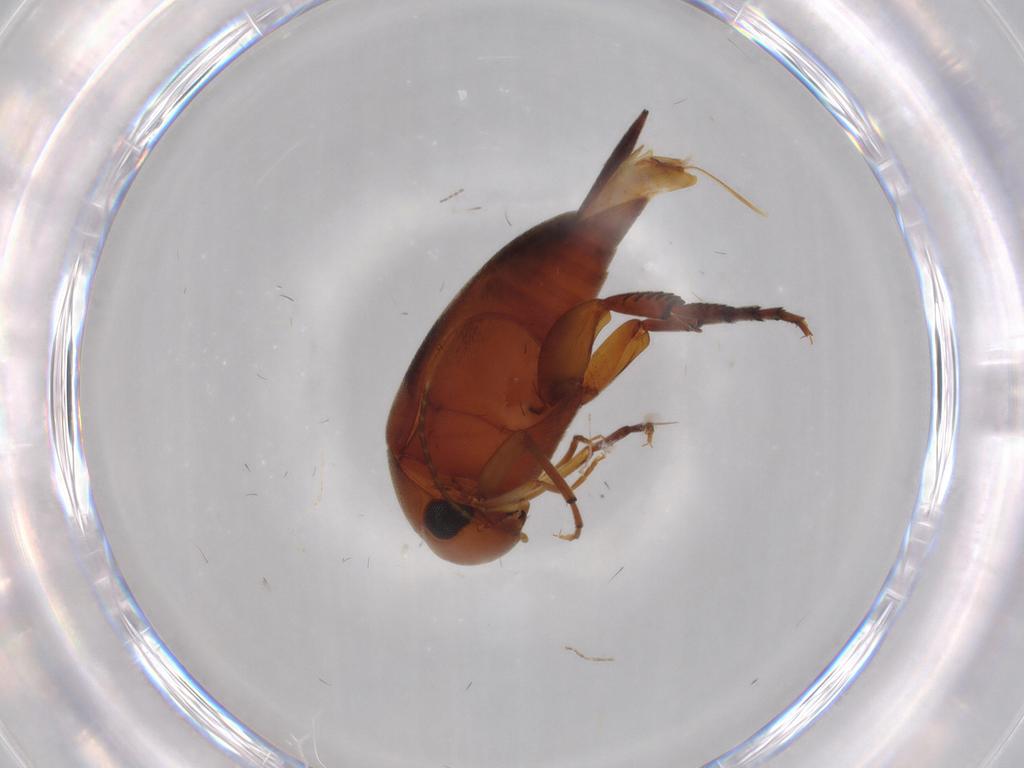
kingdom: Animalia
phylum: Arthropoda
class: Insecta
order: Coleoptera
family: Mordellidae
